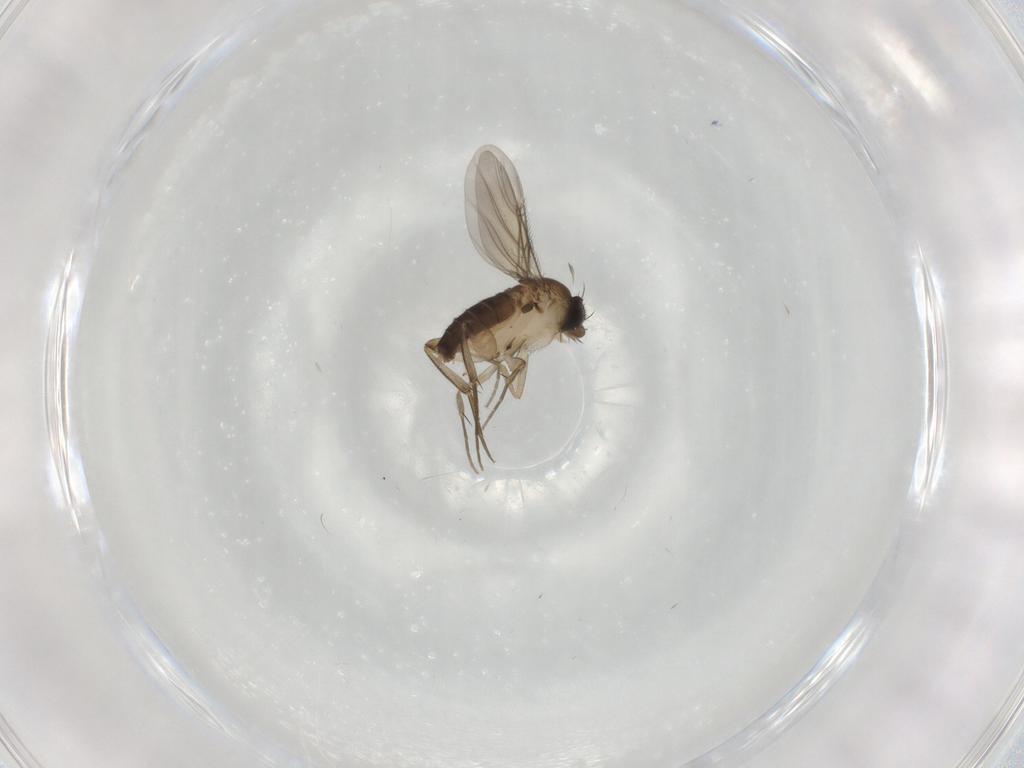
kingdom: Animalia
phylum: Arthropoda
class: Insecta
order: Diptera
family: Phoridae
